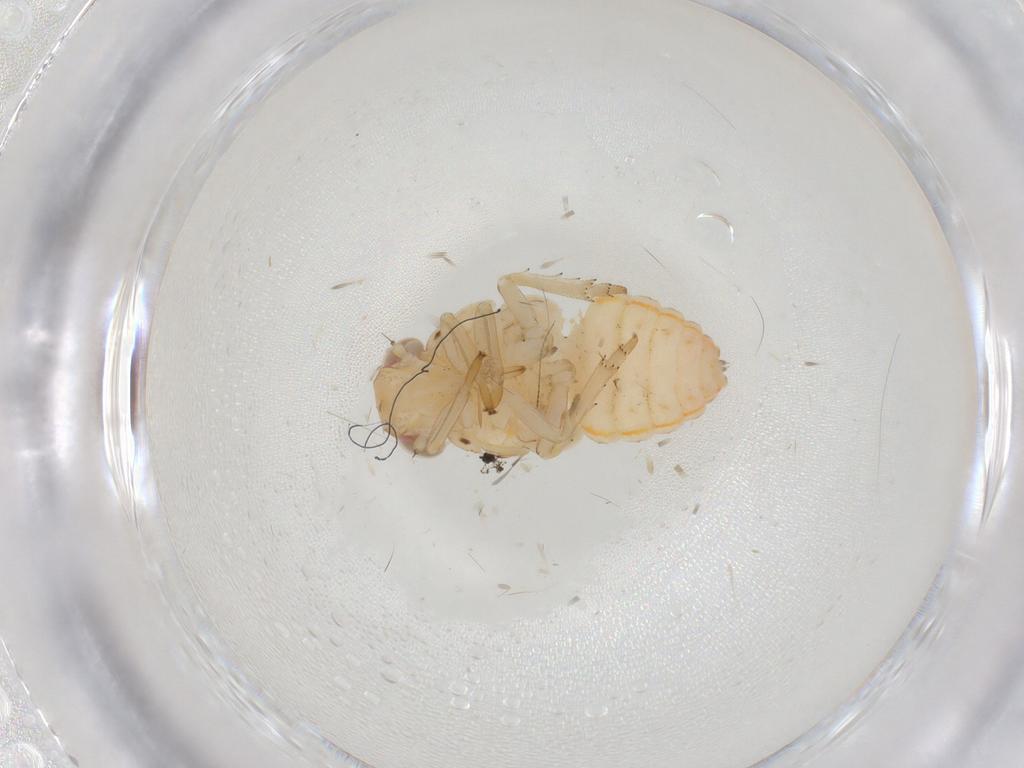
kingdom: Animalia
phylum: Arthropoda
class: Insecta
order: Hemiptera
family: Issidae
